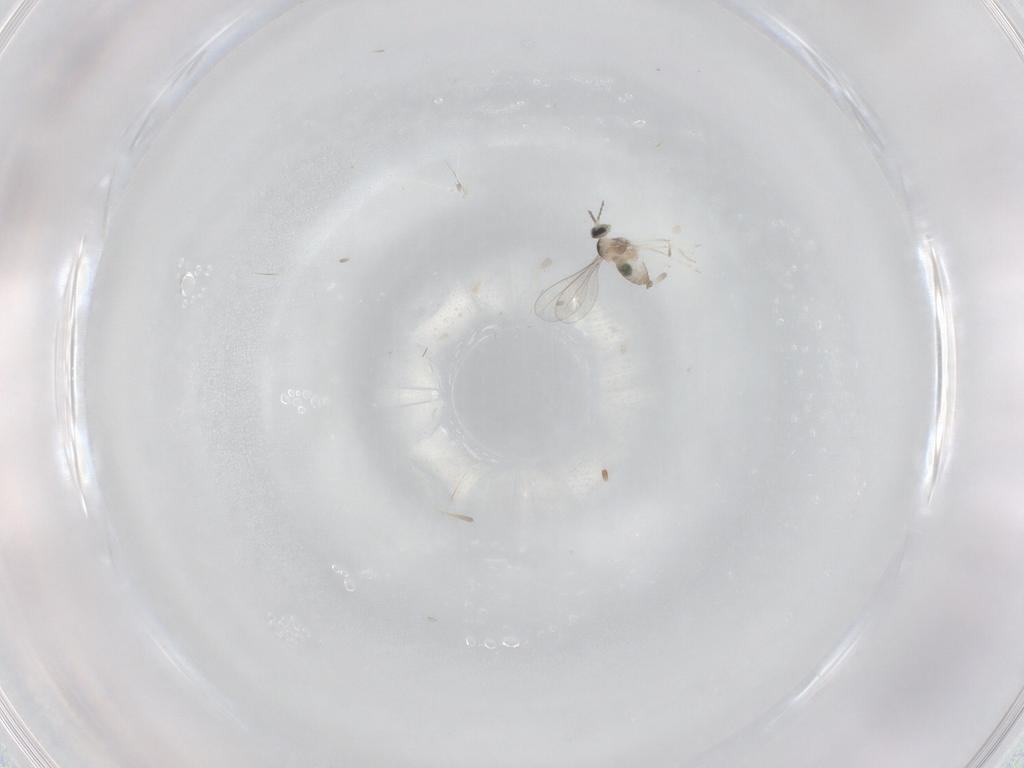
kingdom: Animalia
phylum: Arthropoda
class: Insecta
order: Diptera
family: Cecidomyiidae
